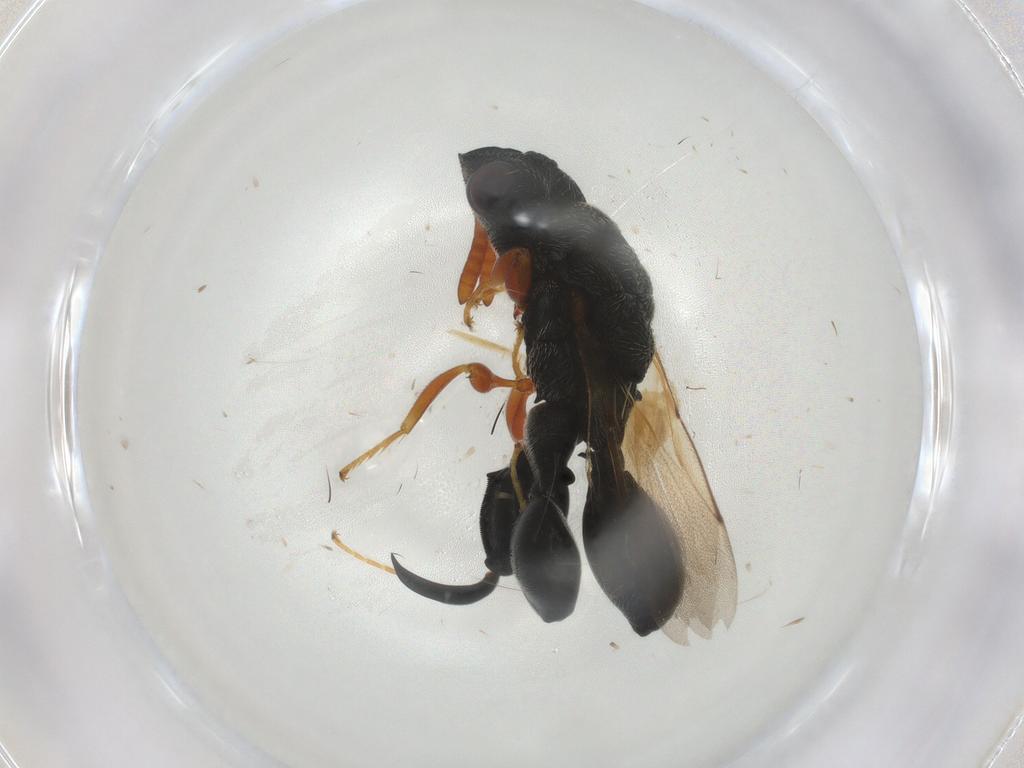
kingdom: Animalia
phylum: Arthropoda
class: Insecta
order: Hymenoptera
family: Chalcididae
